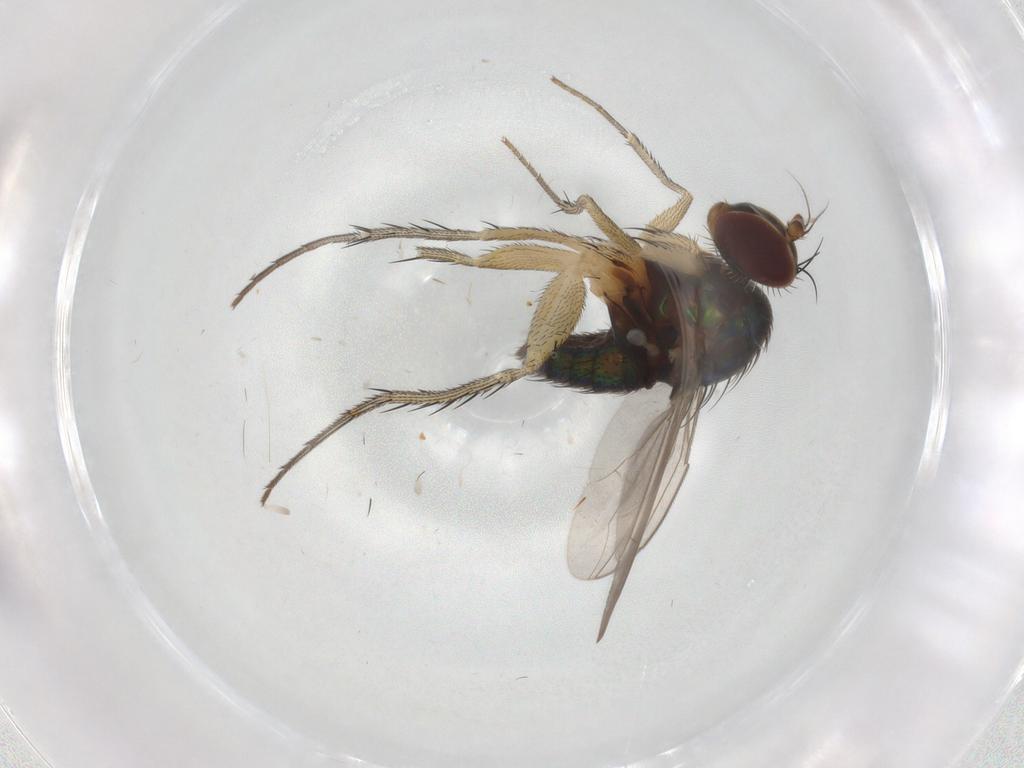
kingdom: Animalia
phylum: Arthropoda
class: Insecta
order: Diptera
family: Dolichopodidae
